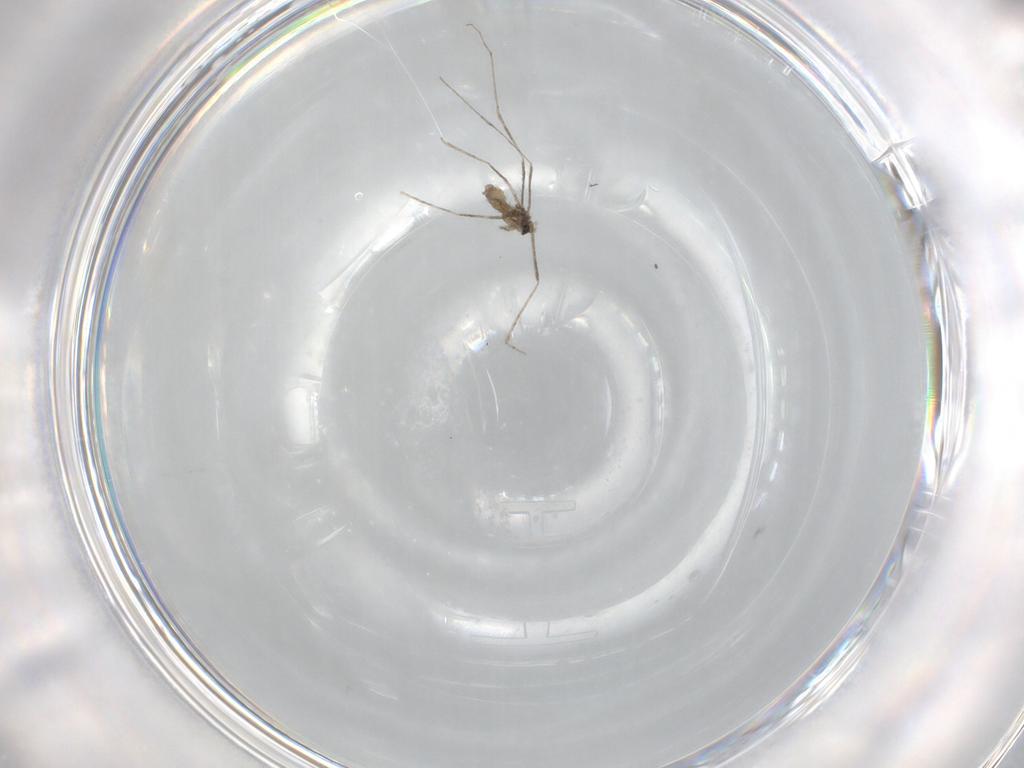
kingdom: Animalia
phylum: Arthropoda
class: Insecta
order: Diptera
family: Cecidomyiidae
